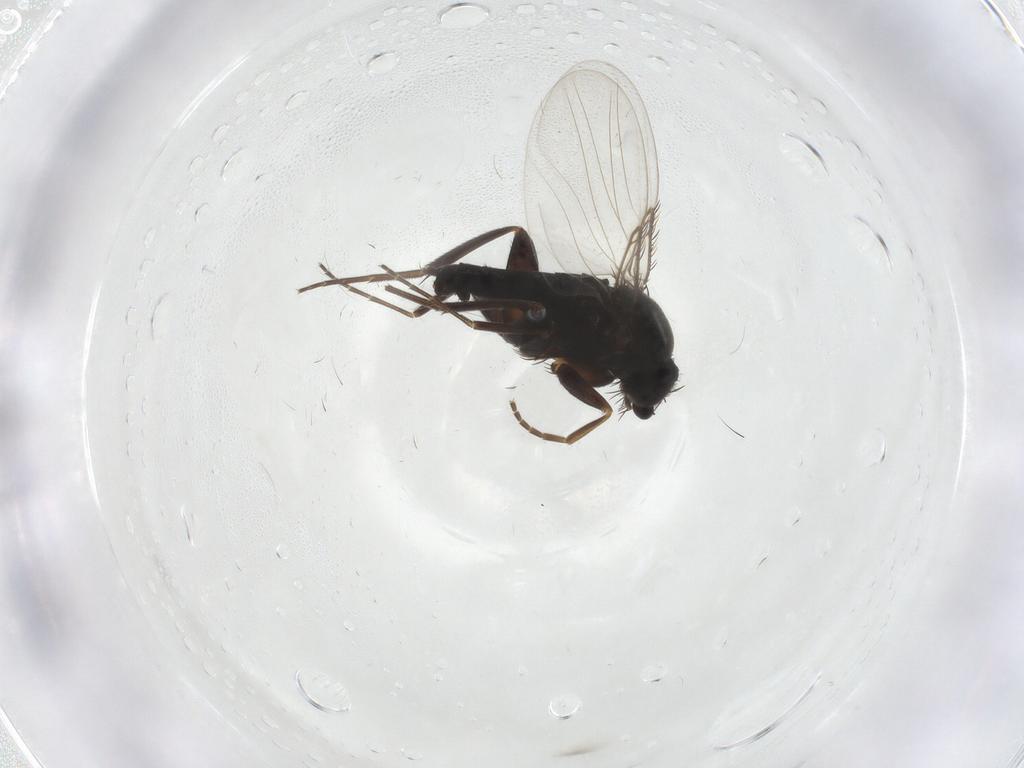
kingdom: Animalia
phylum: Arthropoda
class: Insecta
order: Diptera
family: Phoridae
